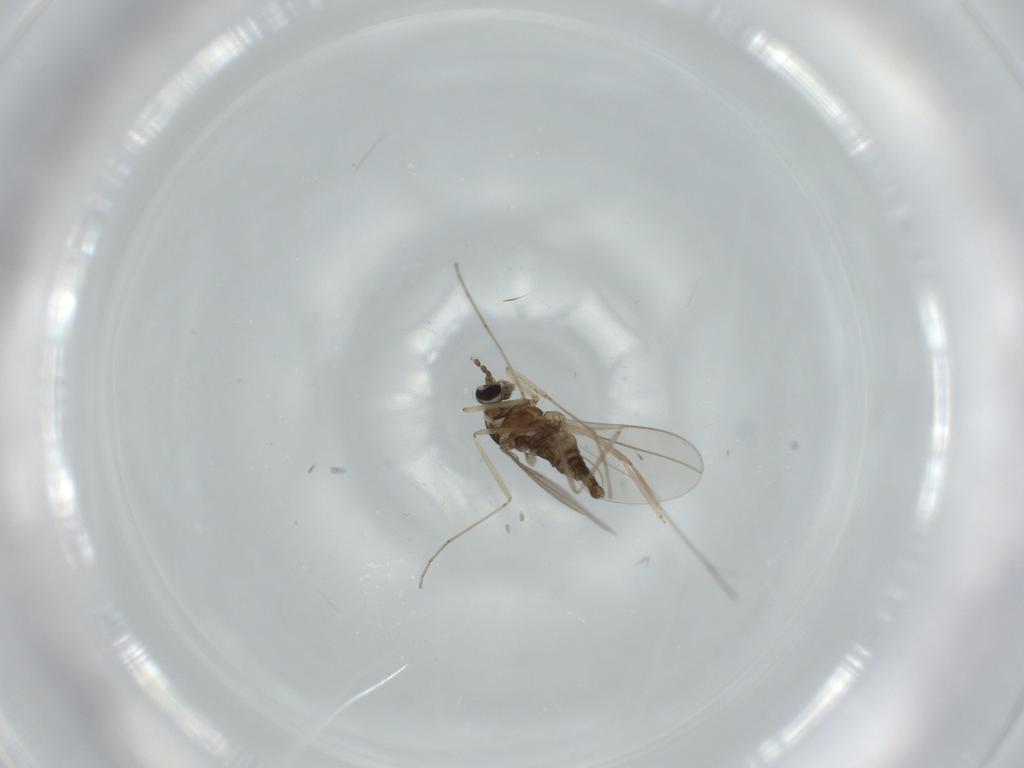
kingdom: Animalia
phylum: Arthropoda
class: Insecta
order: Diptera
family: Cecidomyiidae
